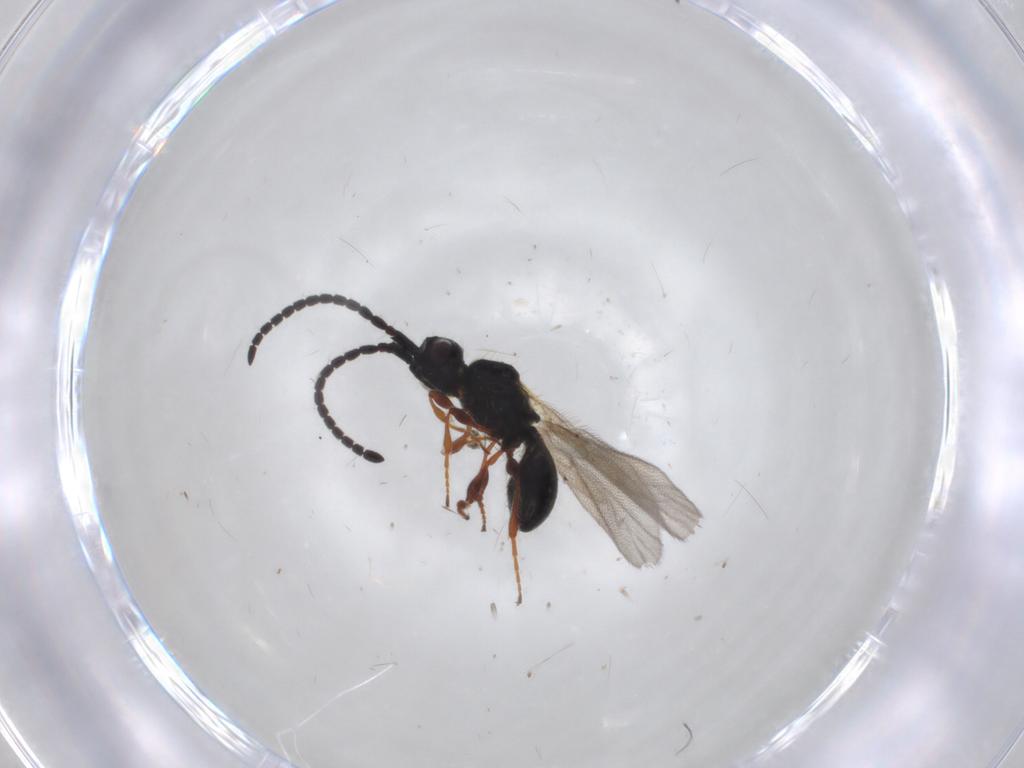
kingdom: Animalia
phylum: Arthropoda
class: Insecta
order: Hymenoptera
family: Diapriidae
